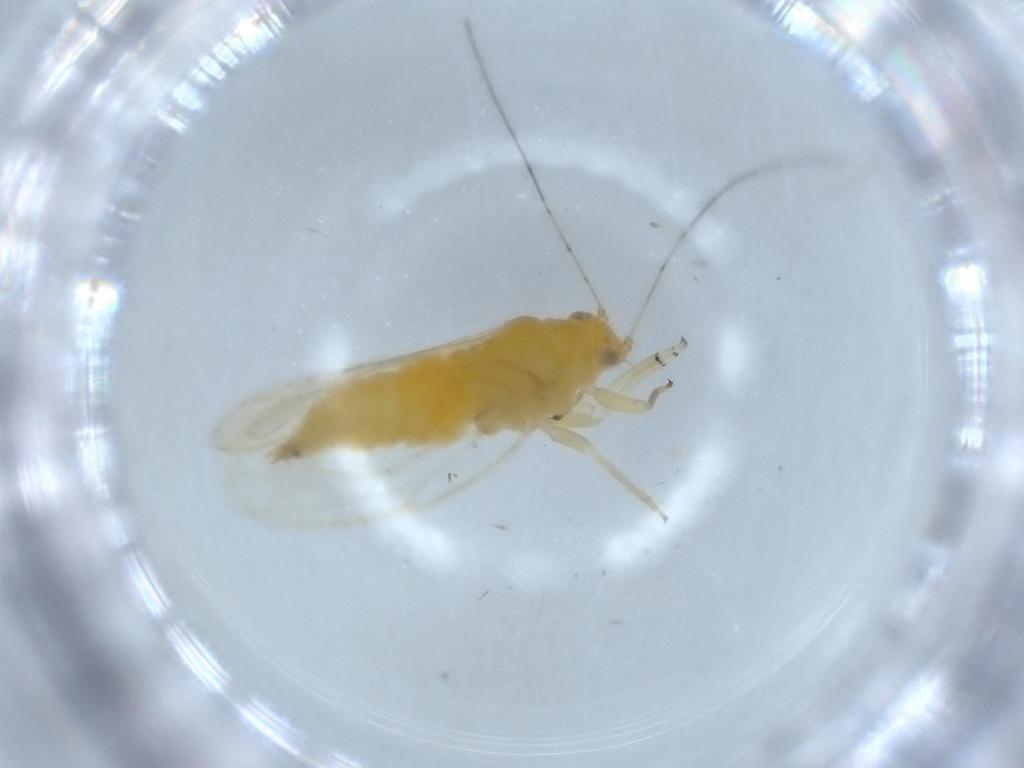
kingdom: Animalia
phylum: Arthropoda
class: Insecta
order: Hemiptera
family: Psyllidae
